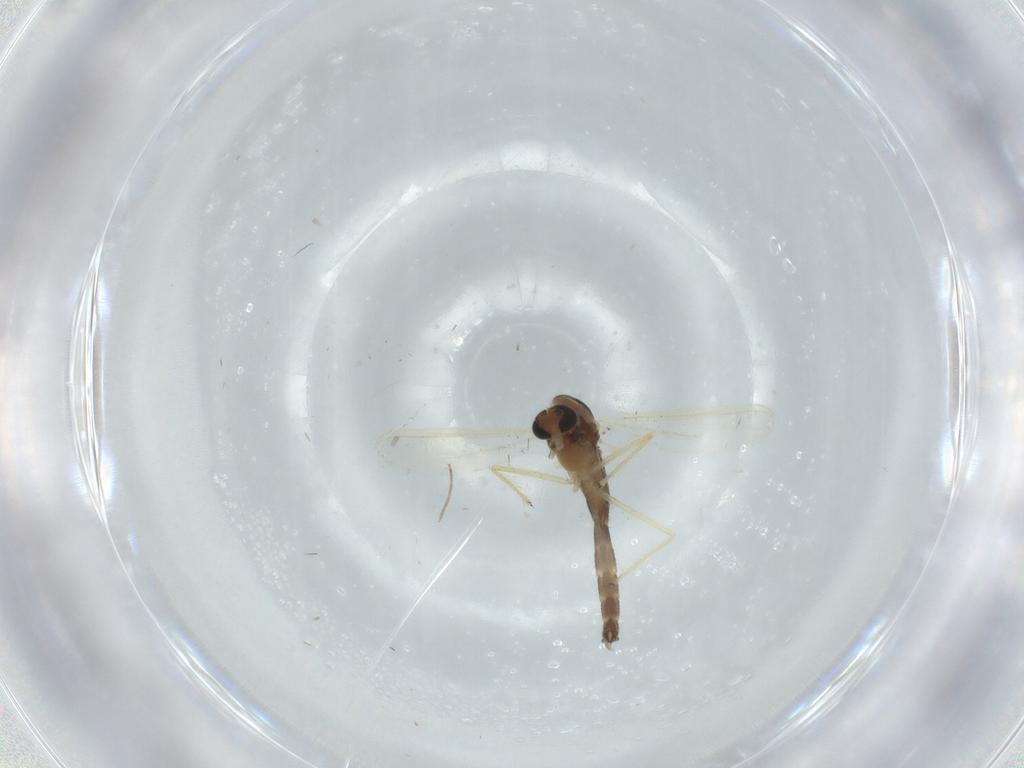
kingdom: Animalia
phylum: Arthropoda
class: Insecta
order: Diptera
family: Chironomidae
